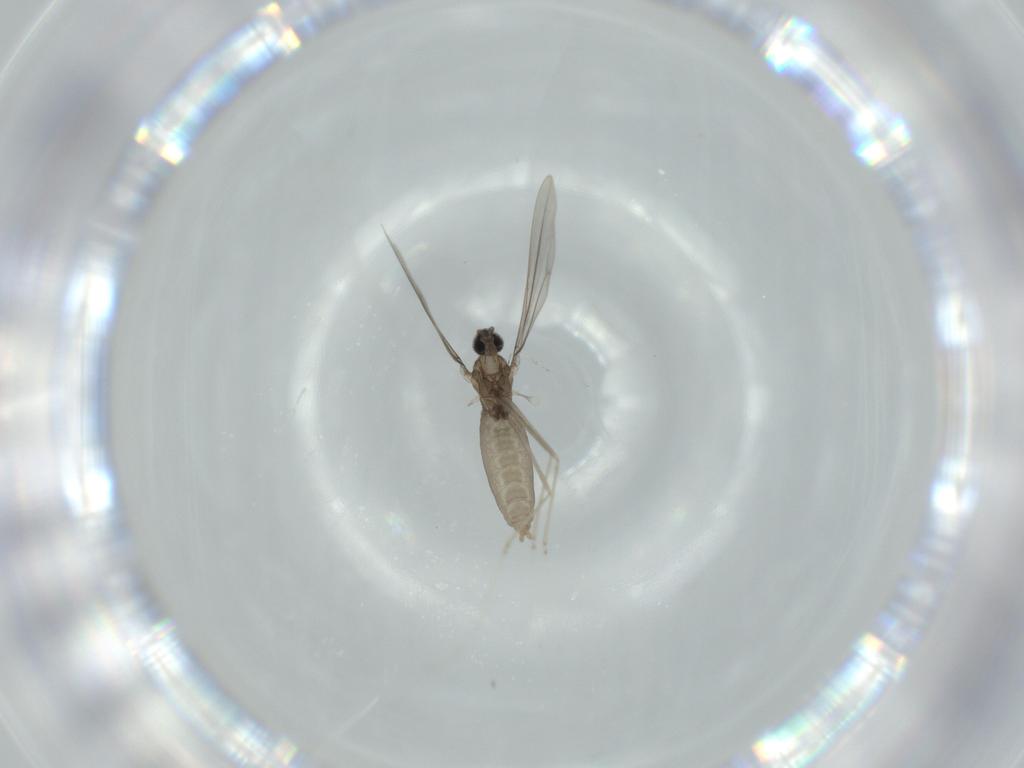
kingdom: Animalia
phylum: Arthropoda
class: Insecta
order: Diptera
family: Cecidomyiidae
